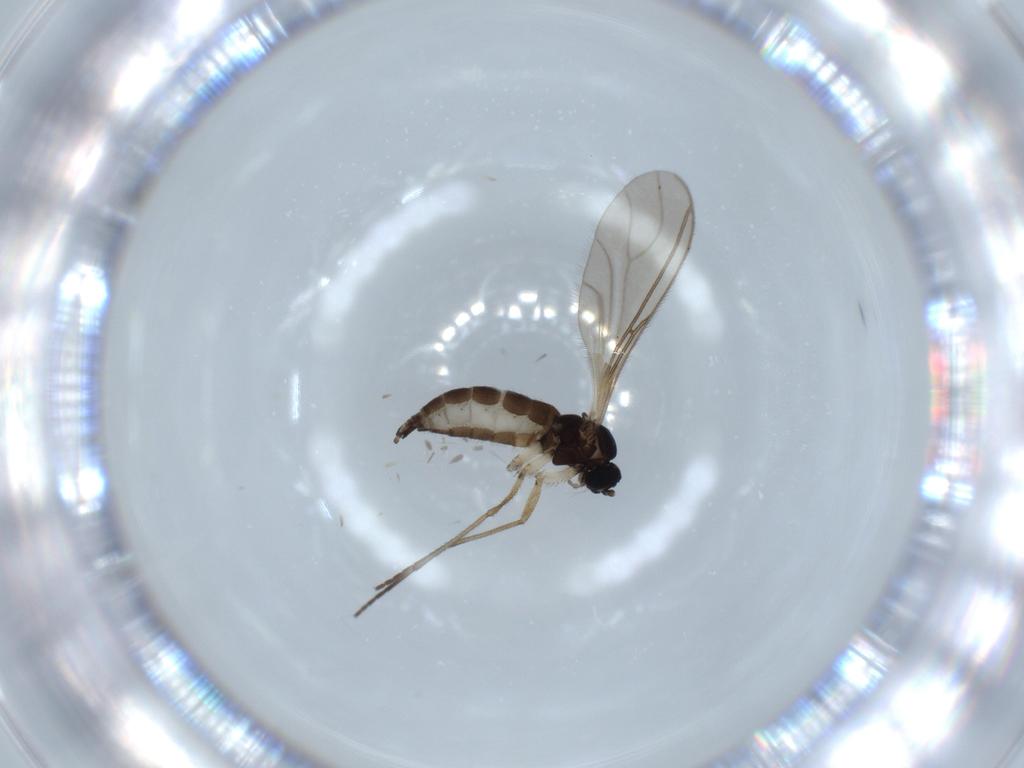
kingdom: Animalia
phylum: Arthropoda
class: Insecta
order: Diptera
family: Sciaridae
